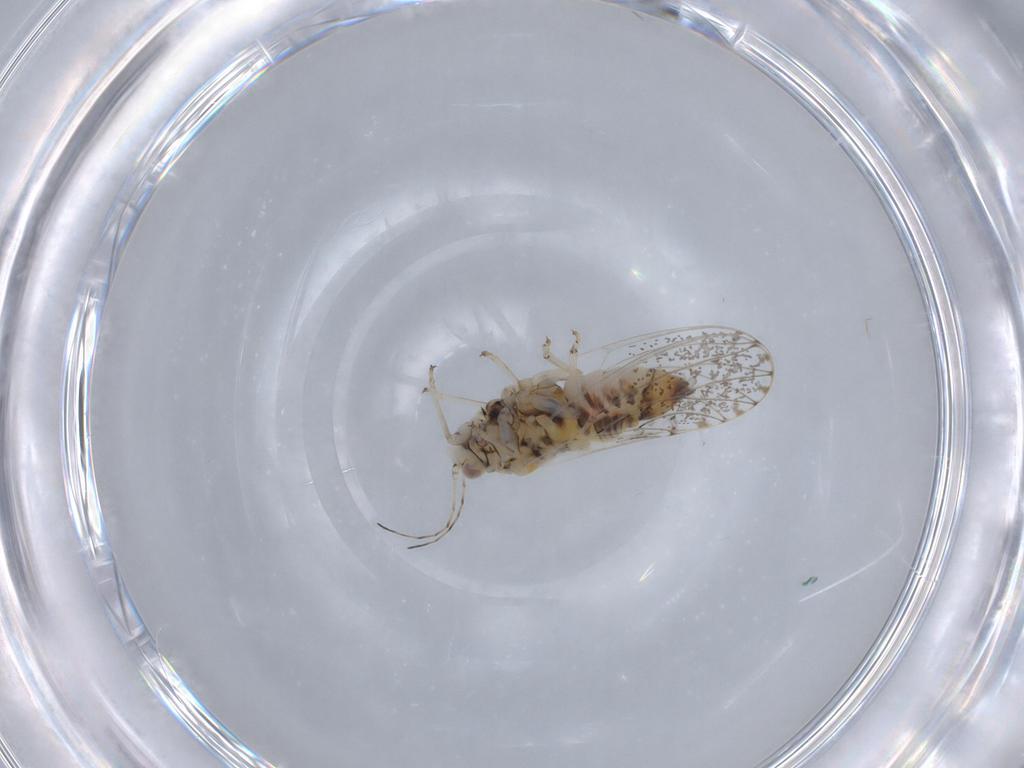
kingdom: Animalia
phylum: Arthropoda
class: Insecta
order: Hemiptera
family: Psyllidae
